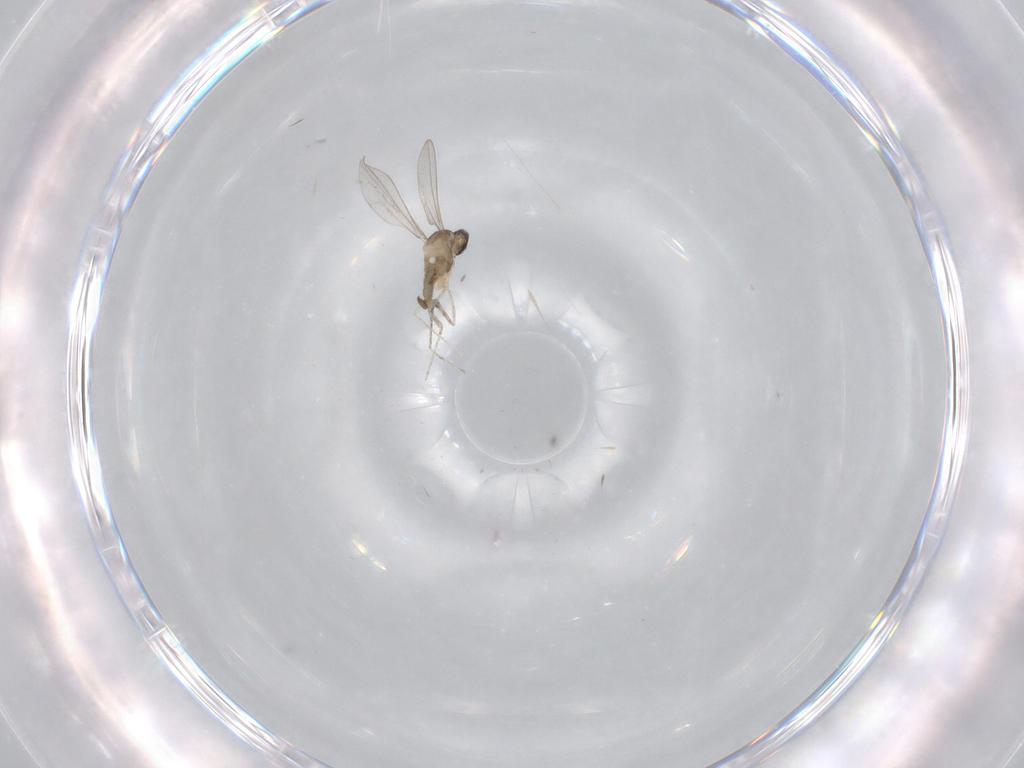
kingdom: Animalia
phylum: Arthropoda
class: Insecta
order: Diptera
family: Cecidomyiidae
